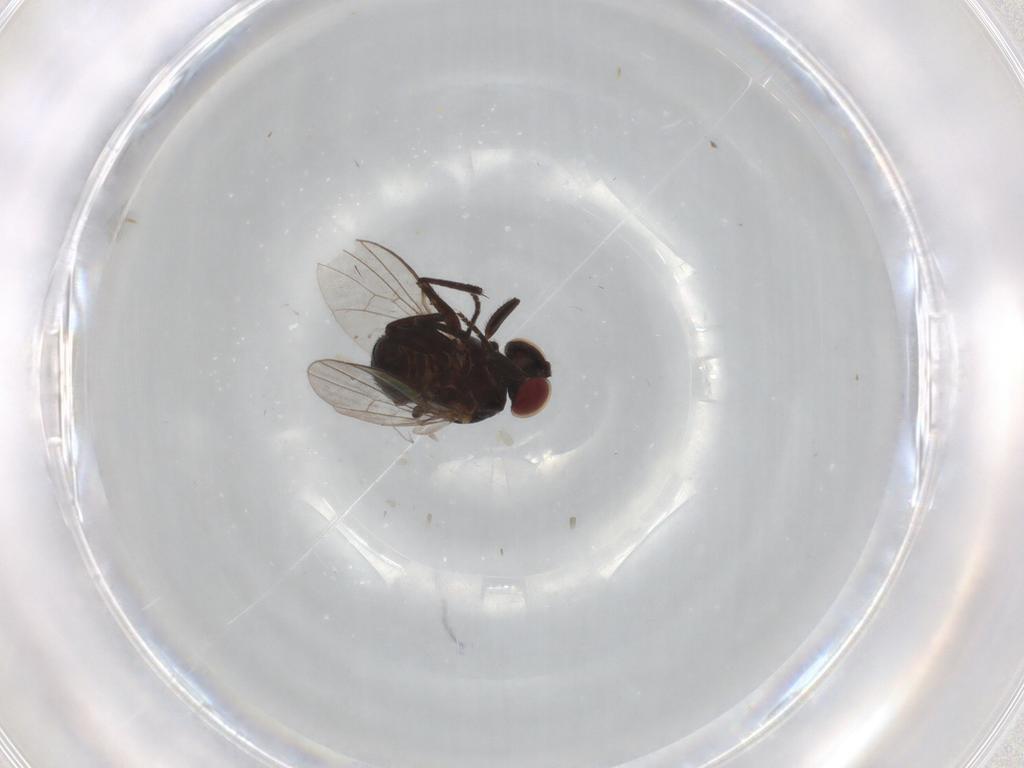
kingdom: Animalia
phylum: Arthropoda
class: Insecta
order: Diptera
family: Agromyzidae
